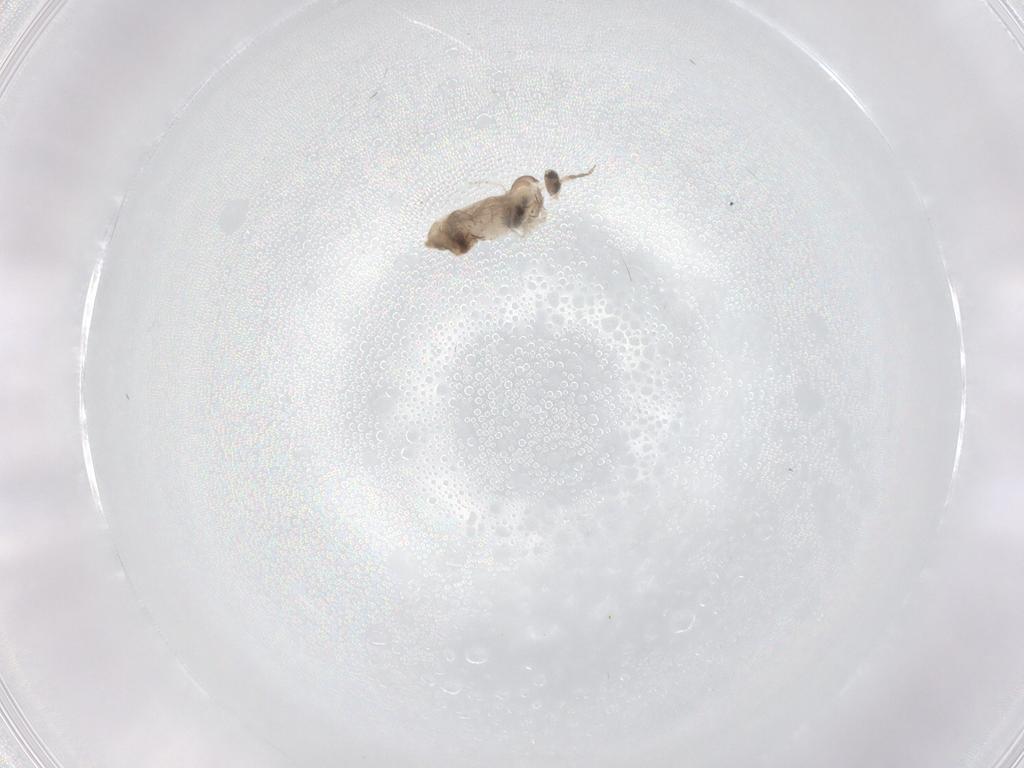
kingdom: Animalia
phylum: Arthropoda
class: Insecta
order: Diptera
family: Cecidomyiidae
